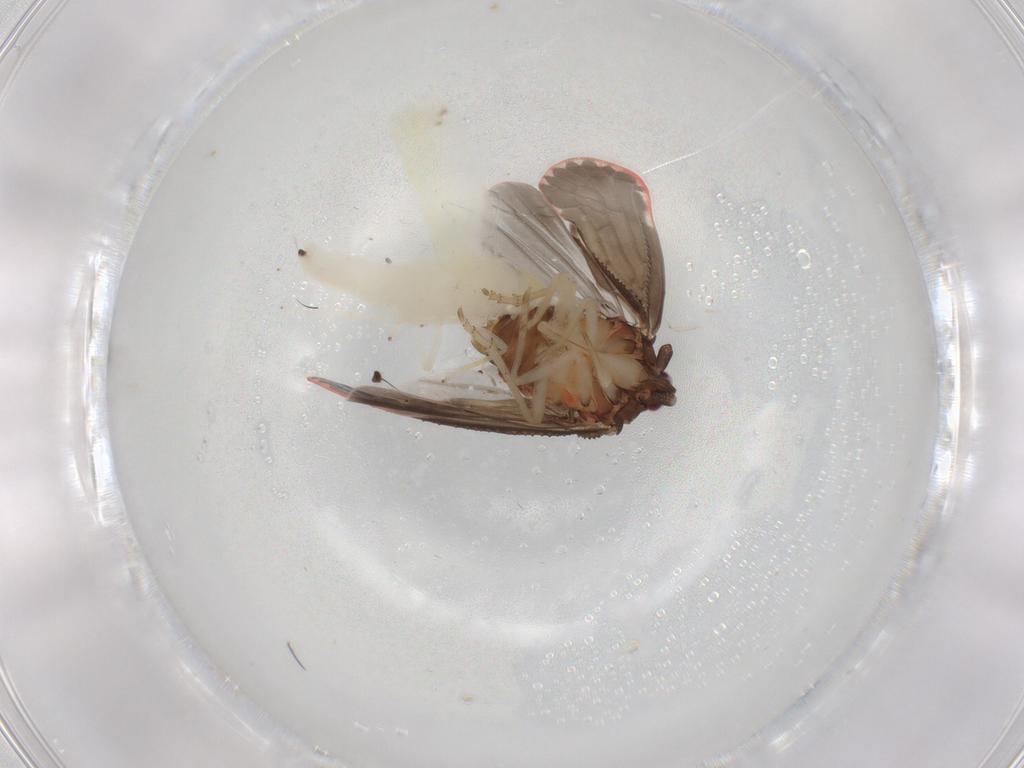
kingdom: Animalia
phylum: Arthropoda
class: Insecta
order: Hemiptera
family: Cicadellidae
